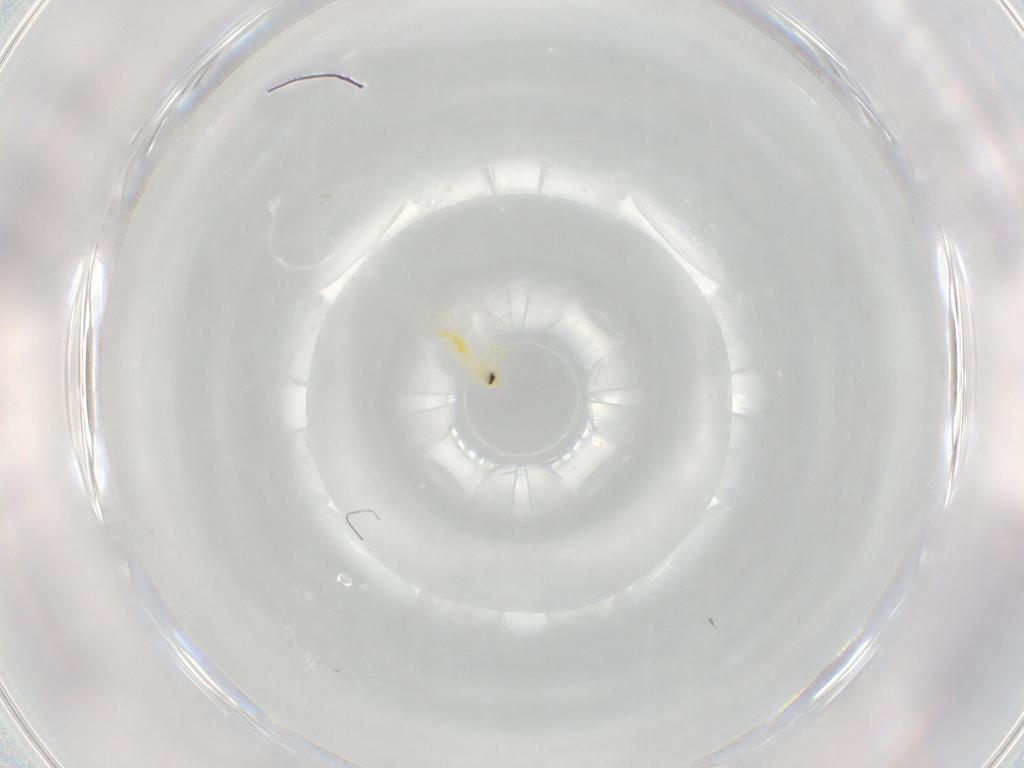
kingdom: Animalia
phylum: Arthropoda
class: Insecta
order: Hemiptera
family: Aleyrodidae
